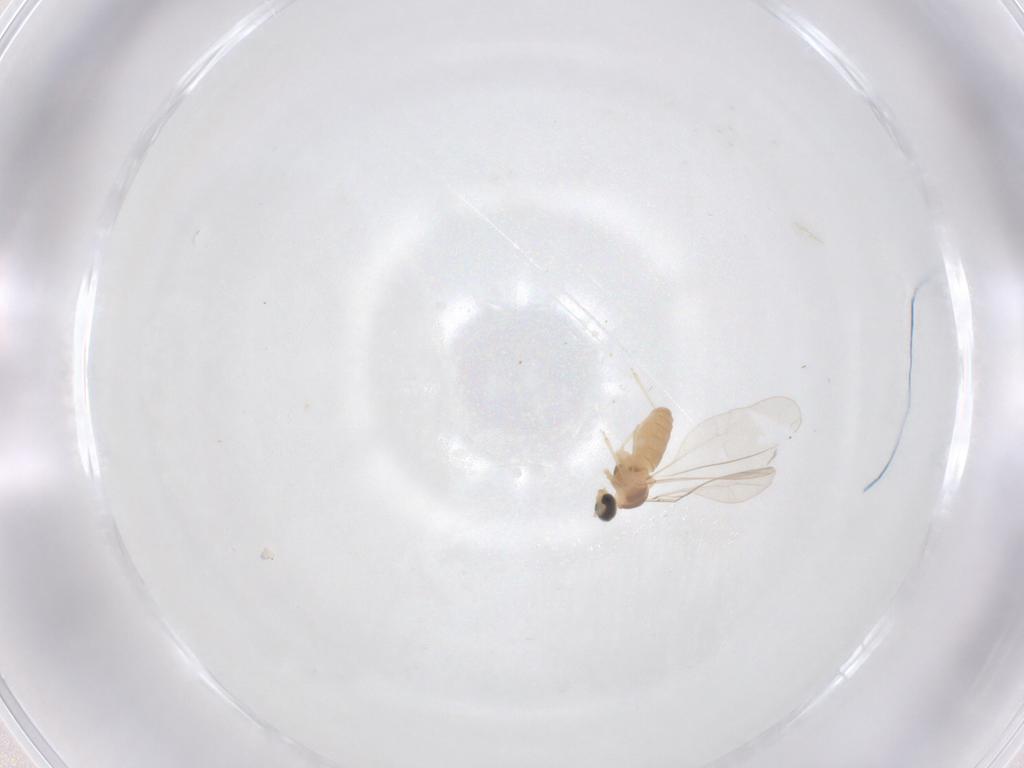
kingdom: Animalia
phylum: Arthropoda
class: Insecta
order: Diptera
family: Cecidomyiidae
